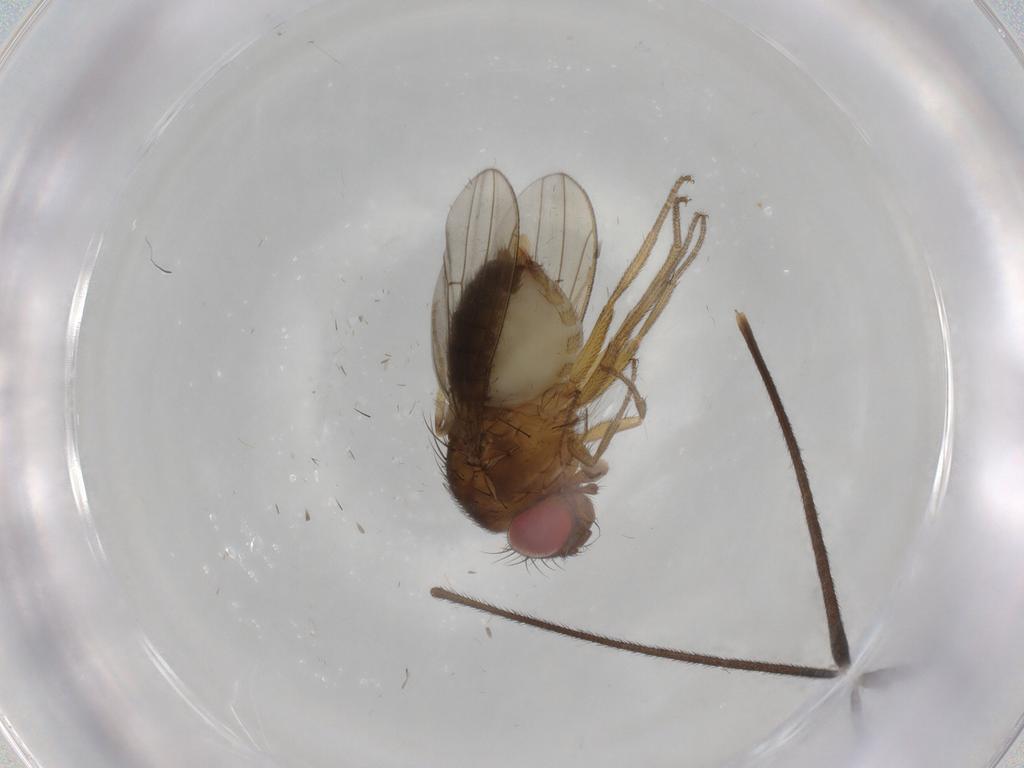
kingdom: Animalia
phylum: Arthropoda
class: Insecta
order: Diptera
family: Drosophilidae
